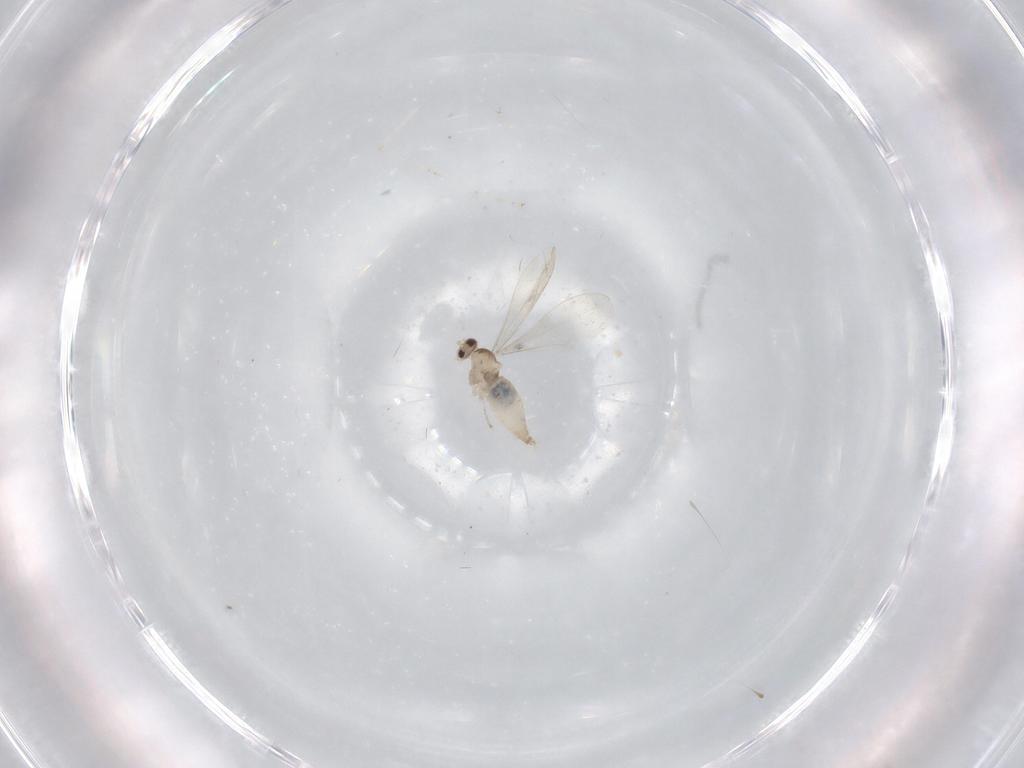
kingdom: Animalia
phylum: Arthropoda
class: Insecta
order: Diptera
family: Cecidomyiidae
